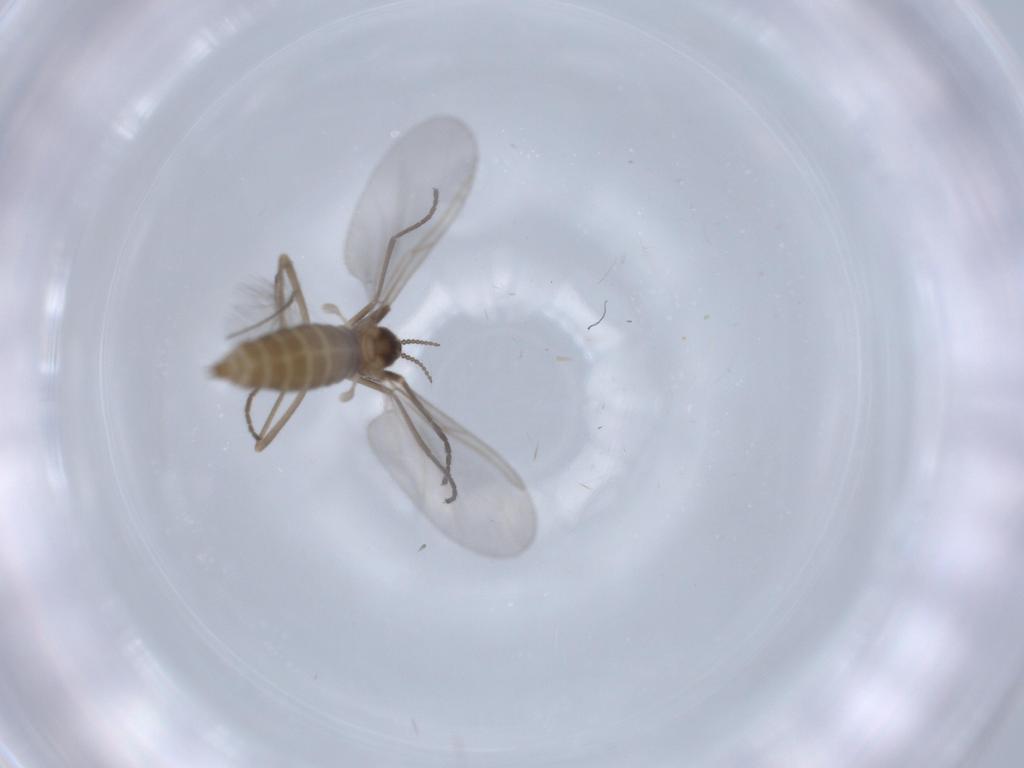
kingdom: Animalia
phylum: Arthropoda
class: Insecta
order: Diptera
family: Cecidomyiidae
